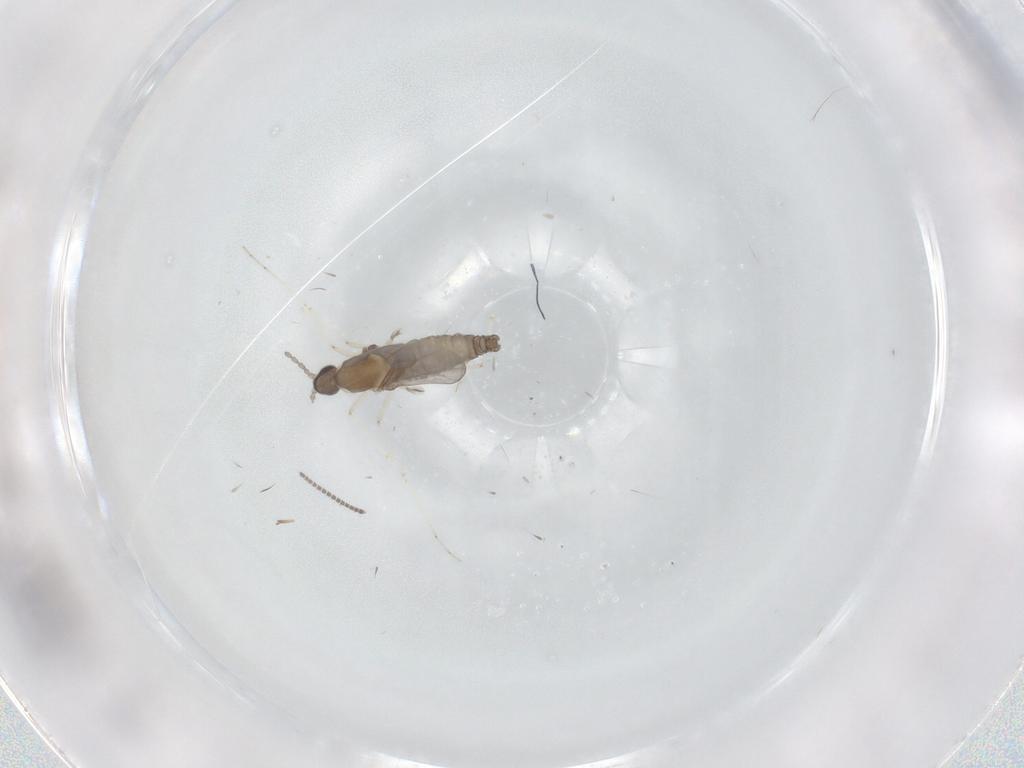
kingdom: Animalia
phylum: Arthropoda
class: Insecta
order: Diptera
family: Cecidomyiidae
